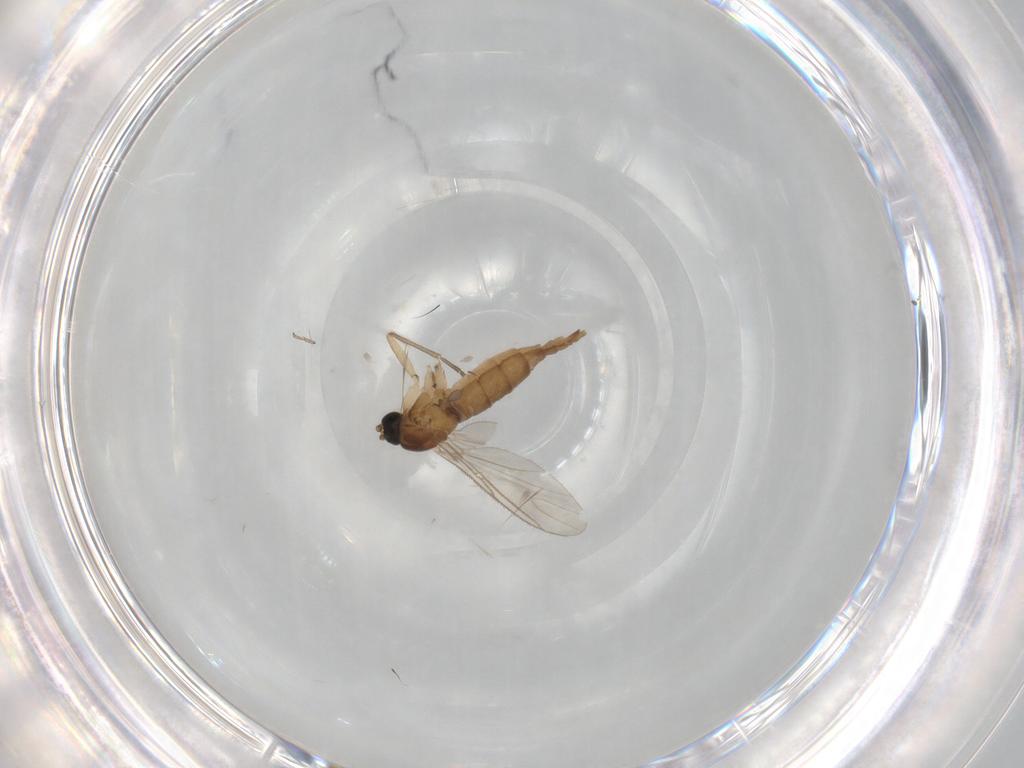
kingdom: Animalia
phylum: Arthropoda
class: Insecta
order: Diptera
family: Sciaridae
